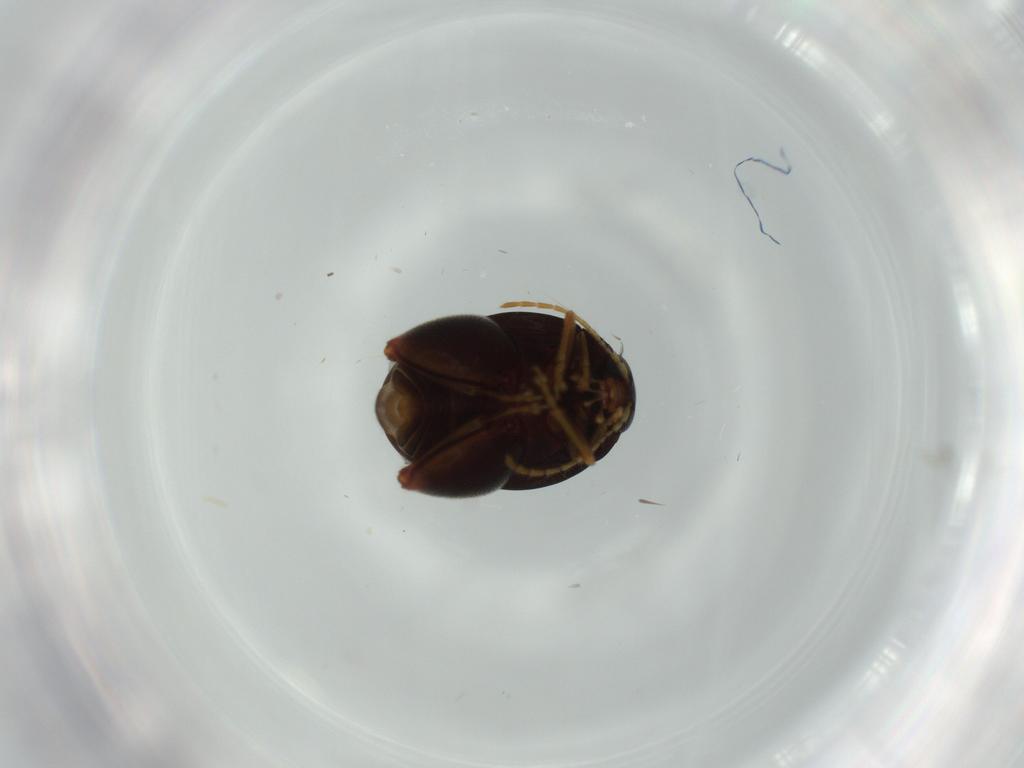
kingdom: Animalia
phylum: Arthropoda
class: Insecta
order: Coleoptera
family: Chrysomelidae
